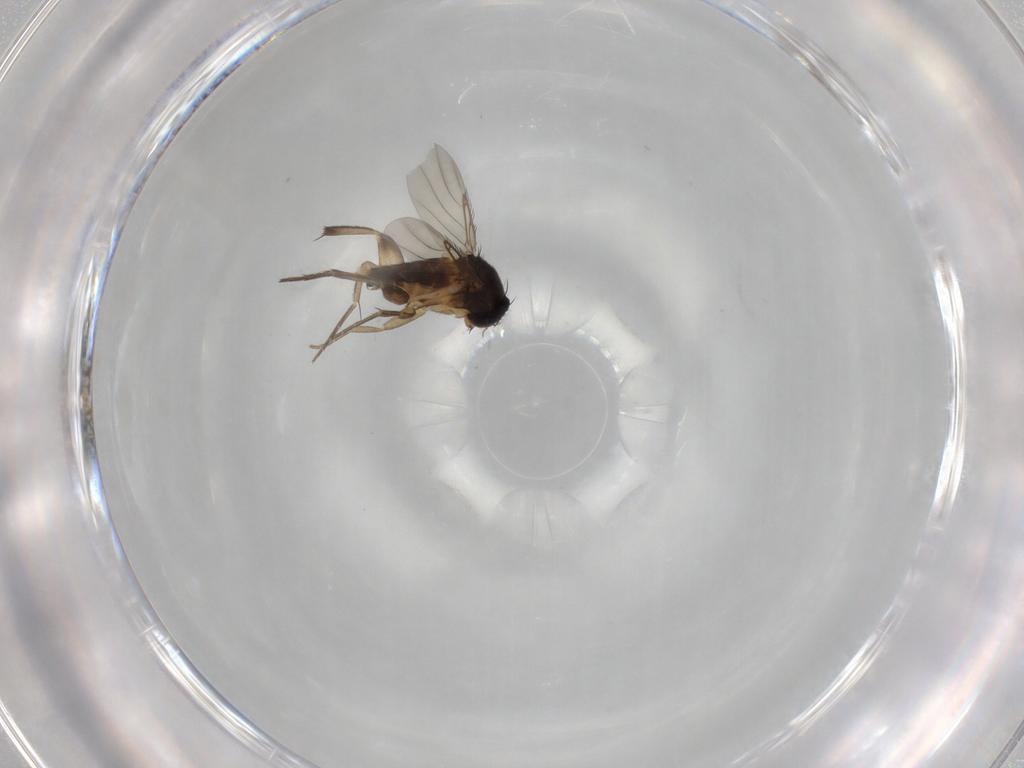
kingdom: Animalia
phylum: Arthropoda
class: Insecta
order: Diptera
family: Phoridae
